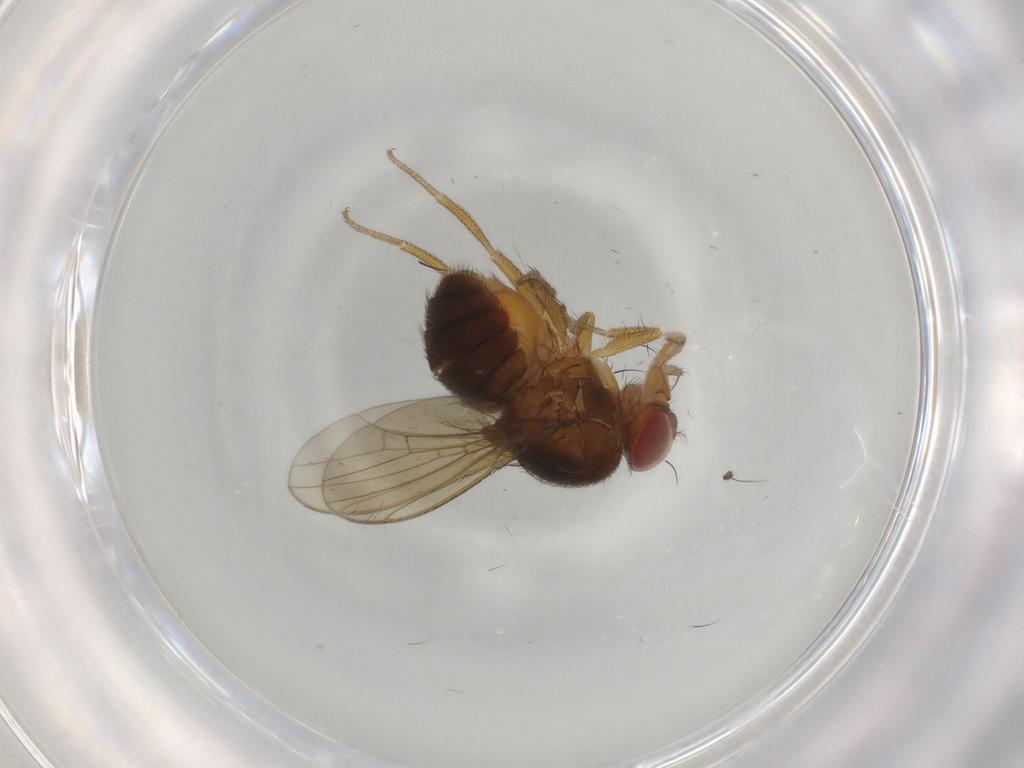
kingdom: Animalia
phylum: Arthropoda
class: Insecta
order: Diptera
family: Drosophilidae
